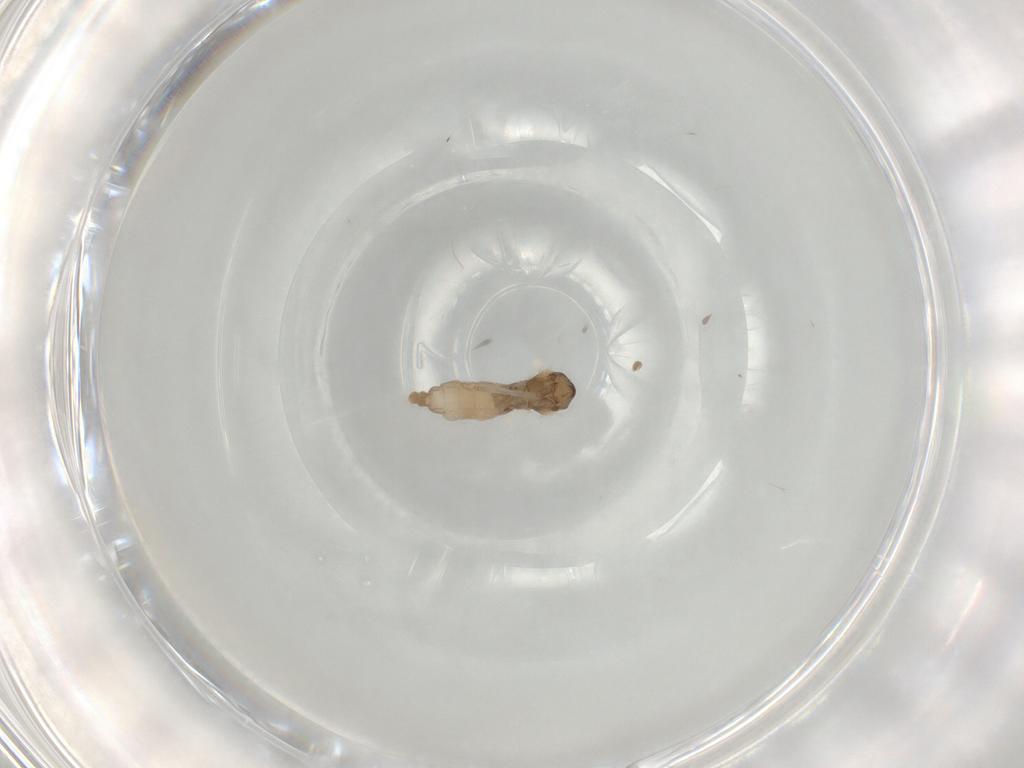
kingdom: Animalia
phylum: Arthropoda
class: Insecta
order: Diptera
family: Cecidomyiidae
